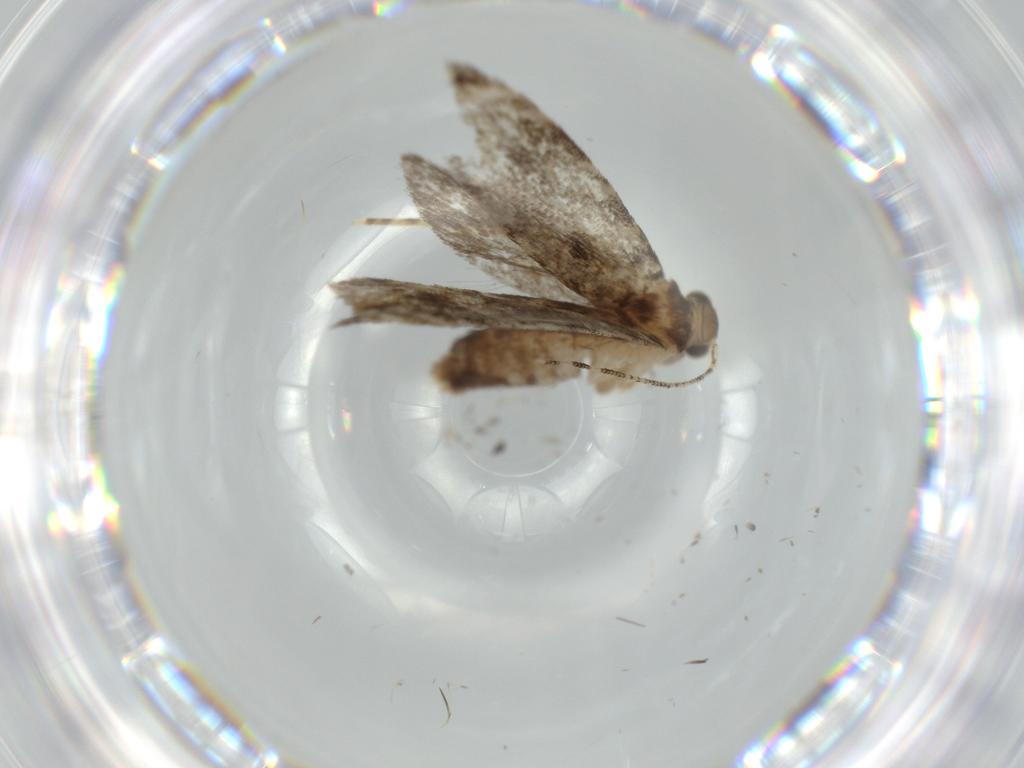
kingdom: Animalia
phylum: Arthropoda
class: Insecta
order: Lepidoptera
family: Tineidae
